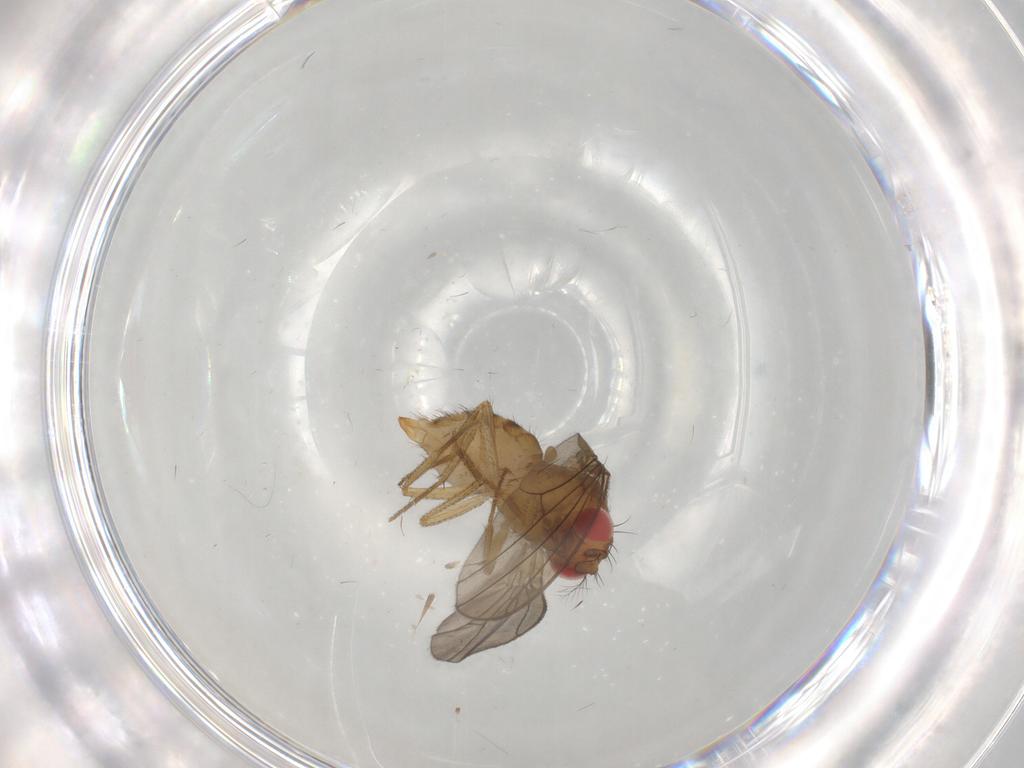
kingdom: Animalia
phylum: Arthropoda
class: Insecta
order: Diptera
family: Drosophilidae
